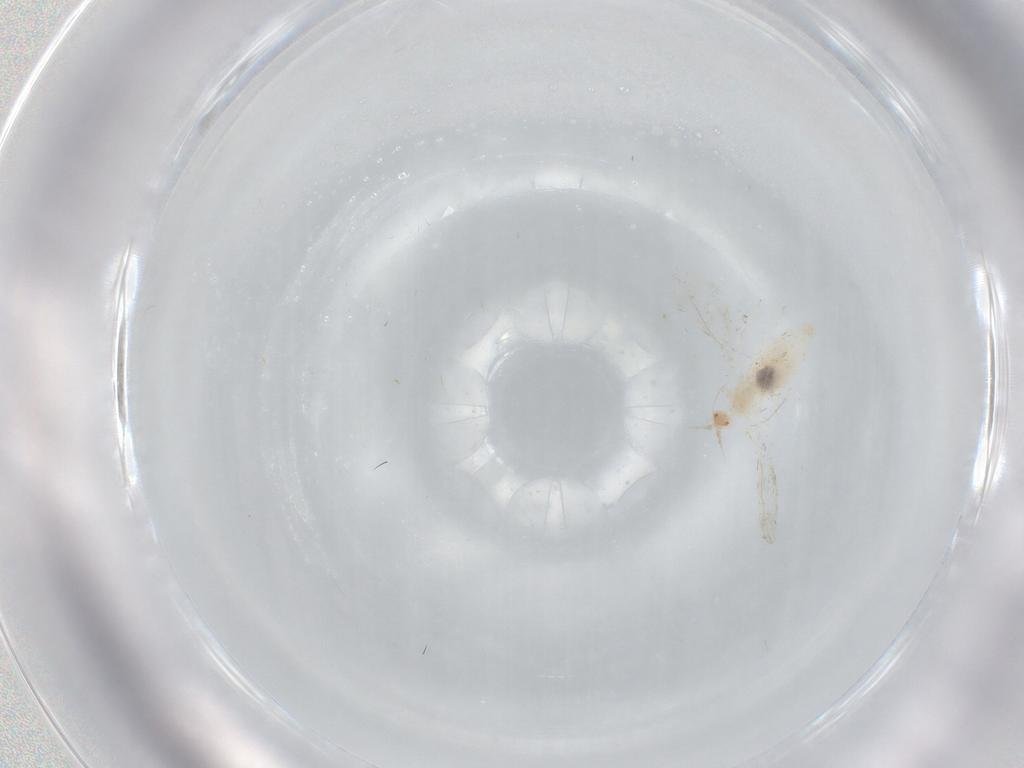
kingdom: Animalia
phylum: Arthropoda
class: Insecta
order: Diptera
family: Cecidomyiidae
